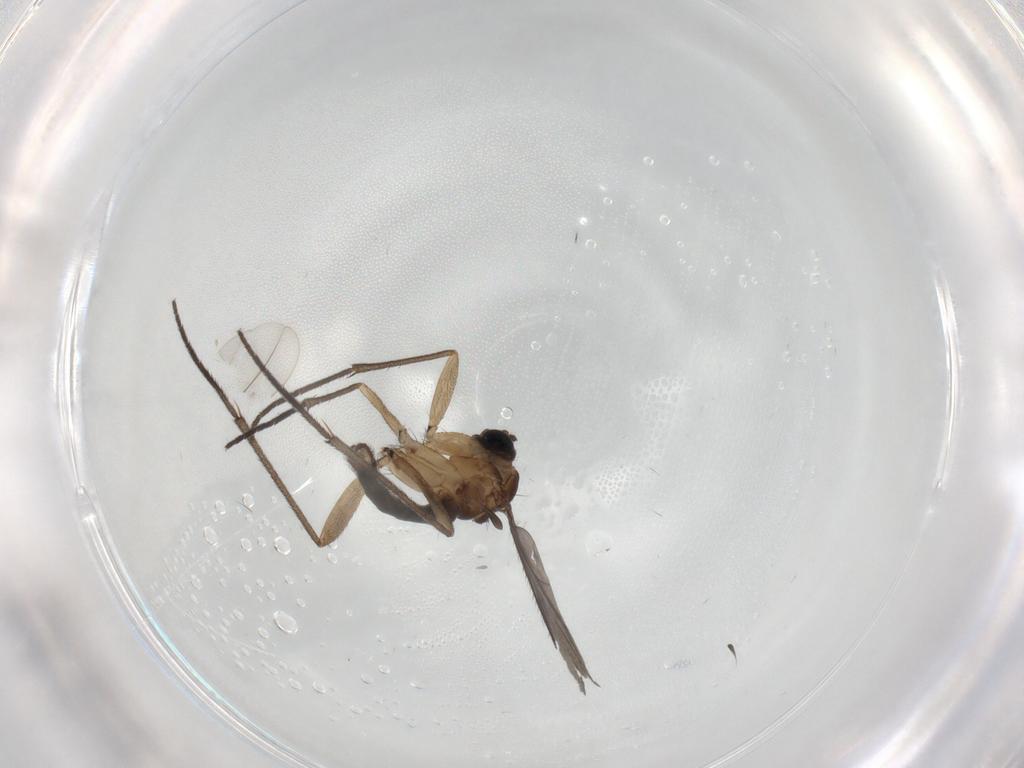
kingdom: Animalia
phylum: Arthropoda
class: Insecta
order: Diptera
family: Sciaridae
